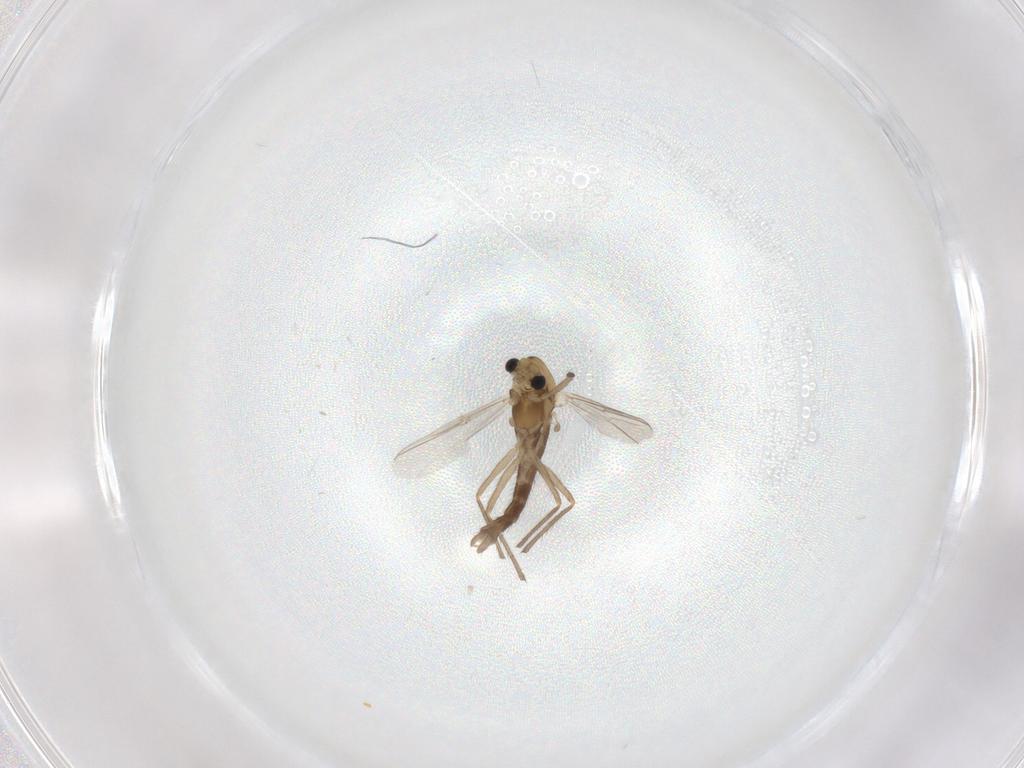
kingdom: Animalia
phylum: Arthropoda
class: Insecta
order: Diptera
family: Chironomidae
